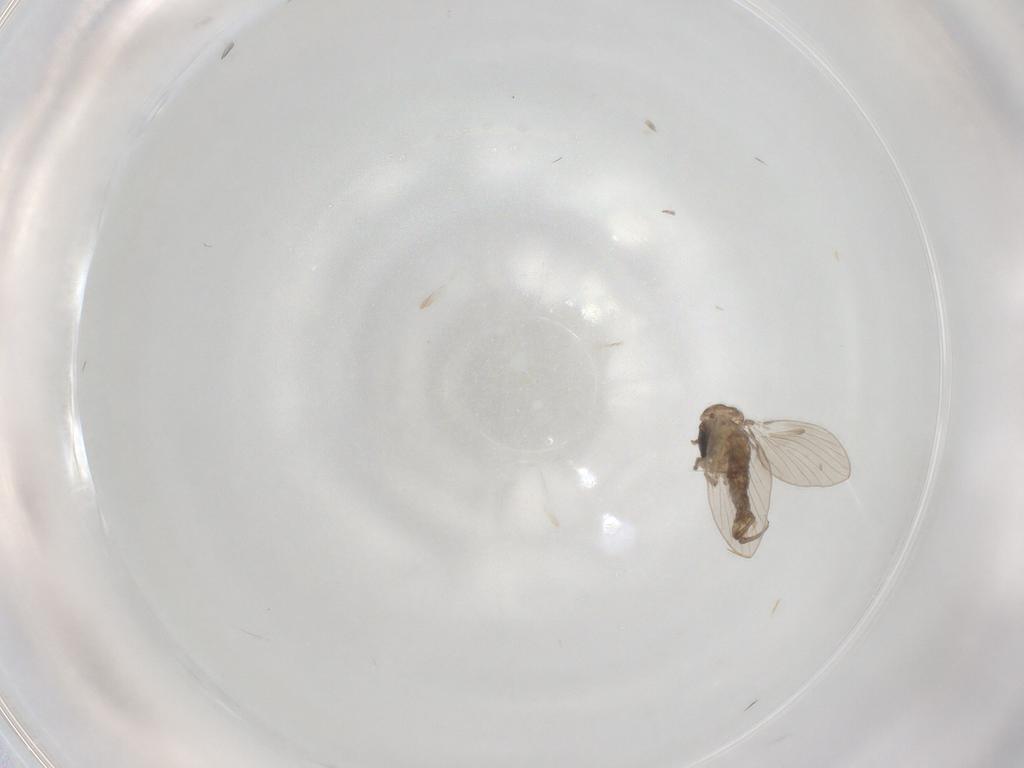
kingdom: Animalia
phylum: Arthropoda
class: Insecta
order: Diptera
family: Drosophilidae
